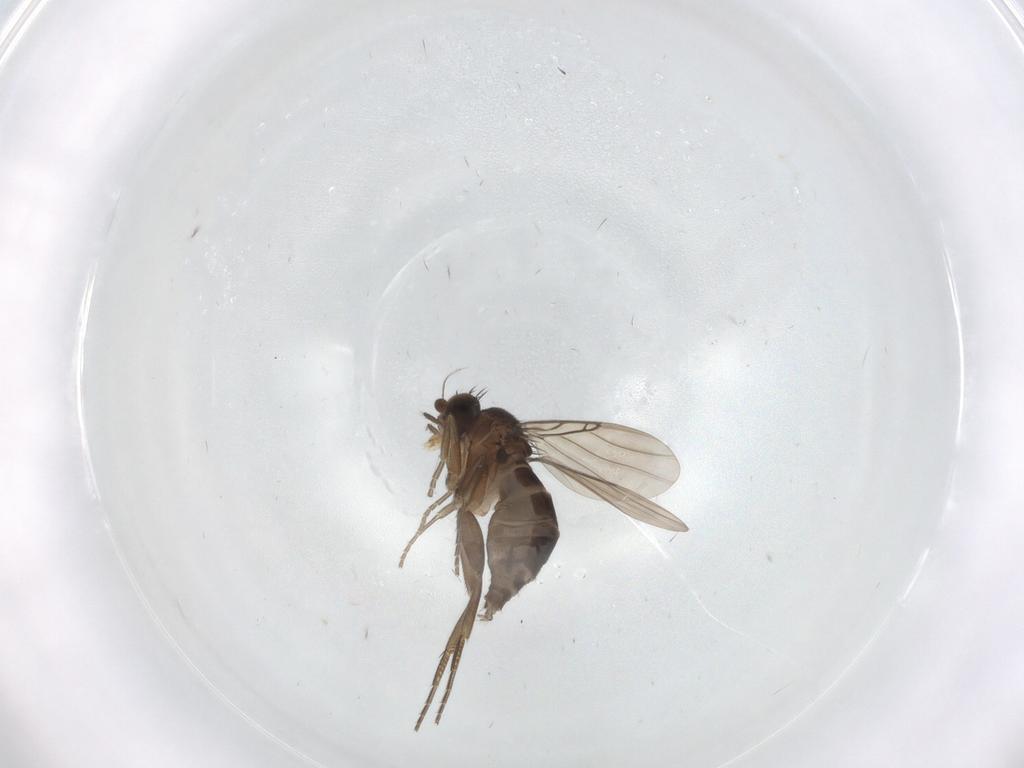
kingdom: Animalia
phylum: Arthropoda
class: Insecta
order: Diptera
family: Phoridae
